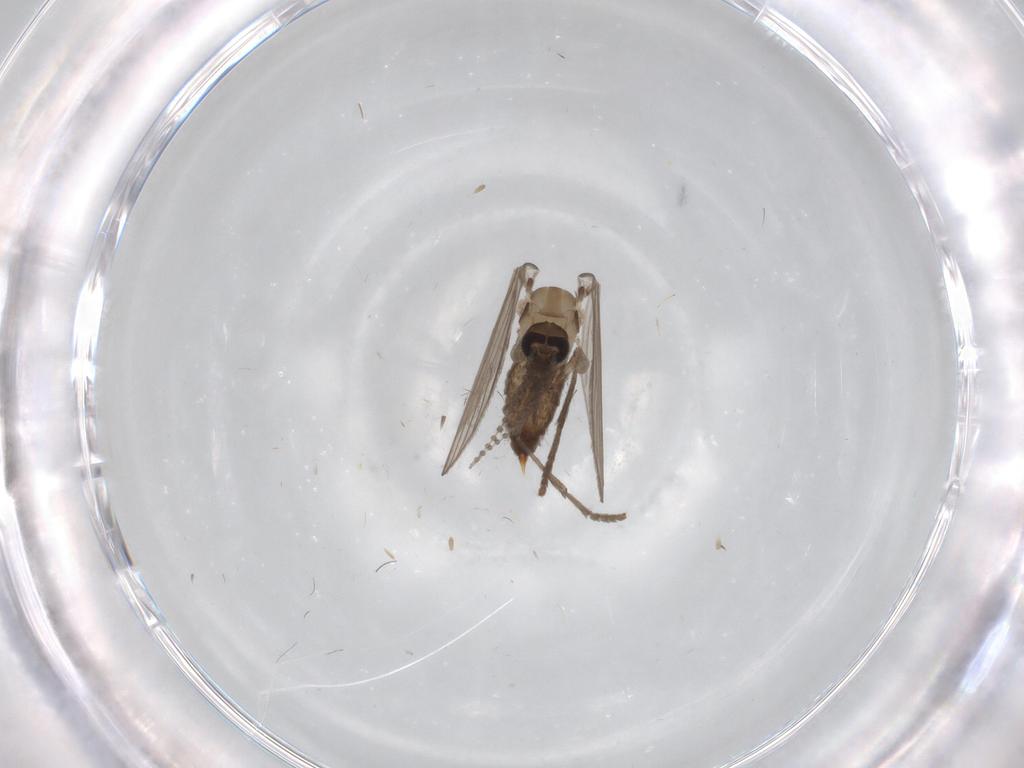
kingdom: Animalia
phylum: Arthropoda
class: Insecta
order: Diptera
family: Psychodidae
